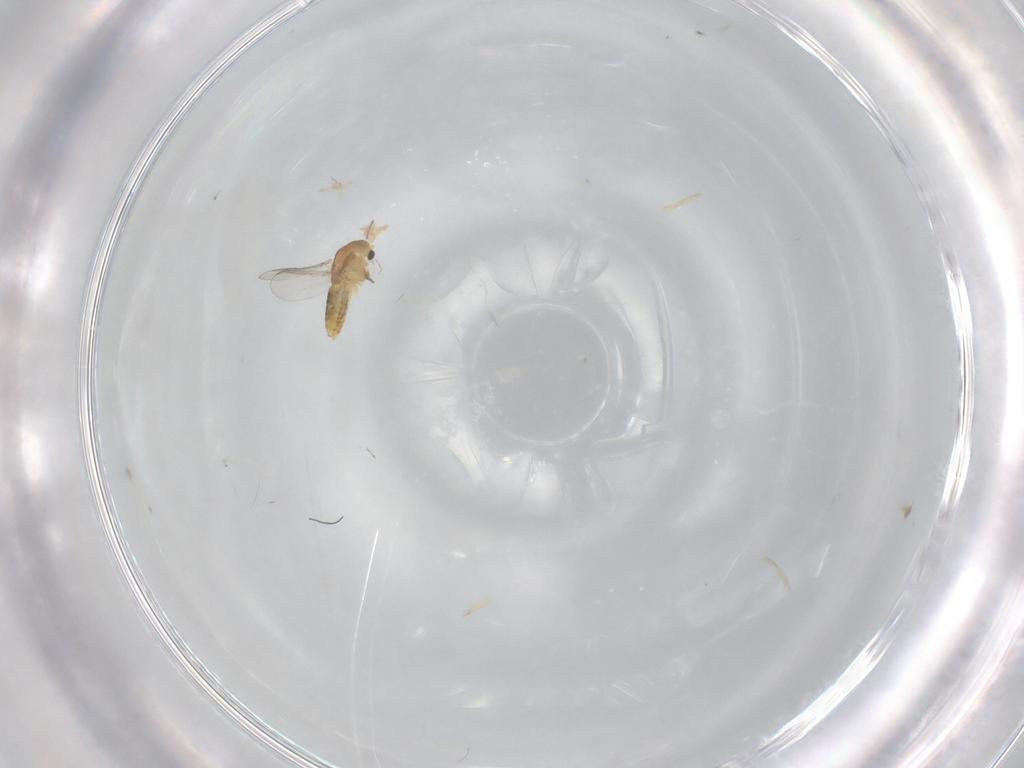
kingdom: Animalia
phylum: Arthropoda
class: Insecta
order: Diptera
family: Chironomidae
